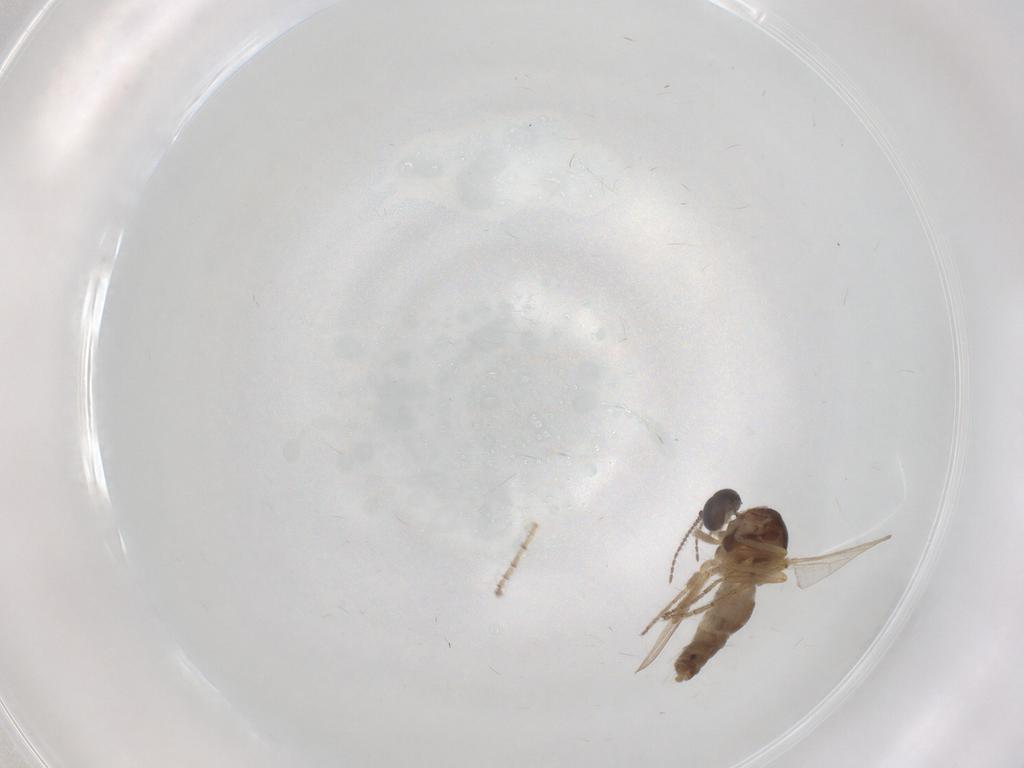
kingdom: Animalia
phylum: Arthropoda
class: Insecta
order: Diptera
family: Ceratopogonidae
